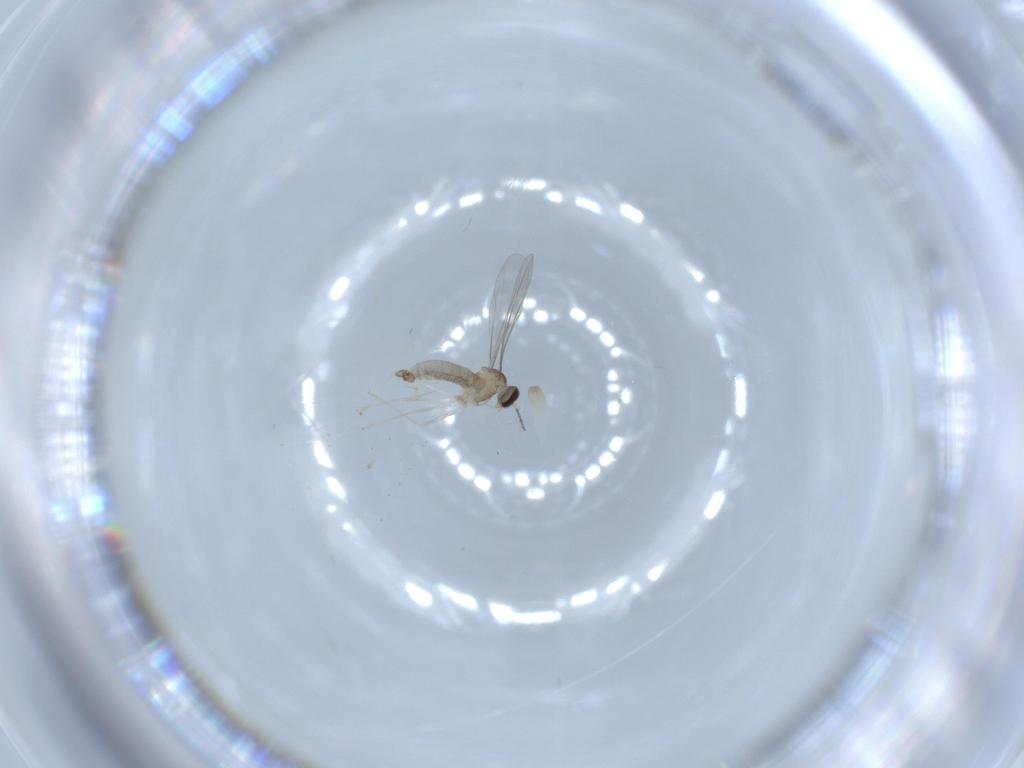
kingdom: Animalia
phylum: Arthropoda
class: Insecta
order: Diptera
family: Cecidomyiidae
